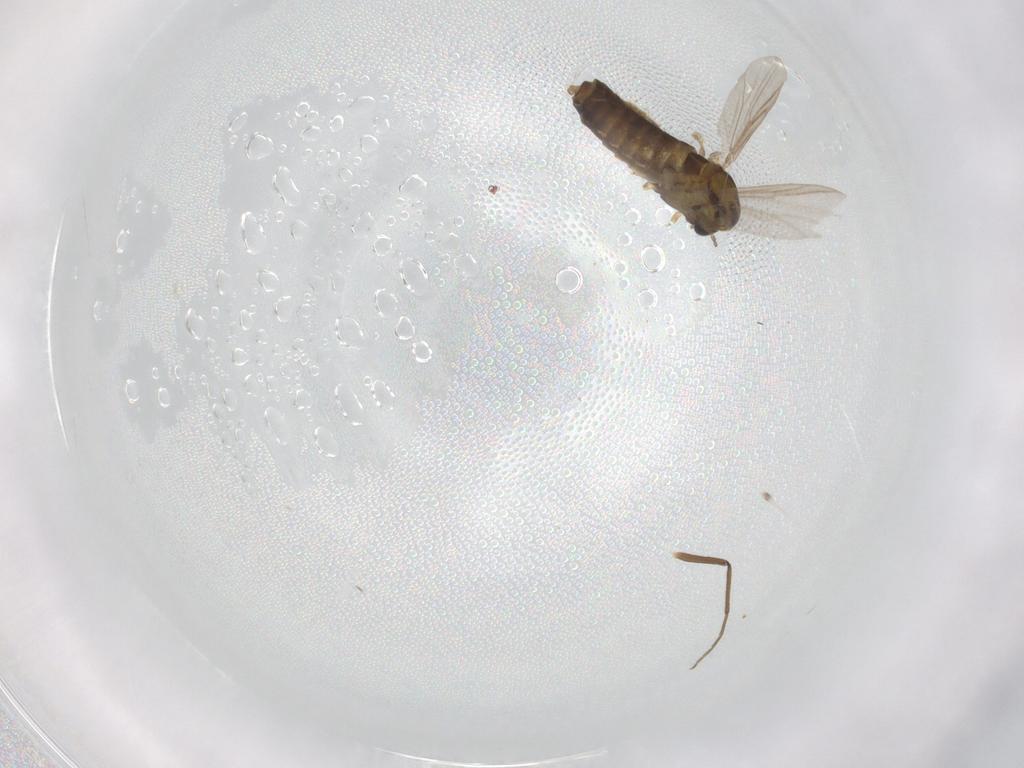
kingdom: Animalia
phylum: Arthropoda
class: Insecta
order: Diptera
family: Chironomidae
